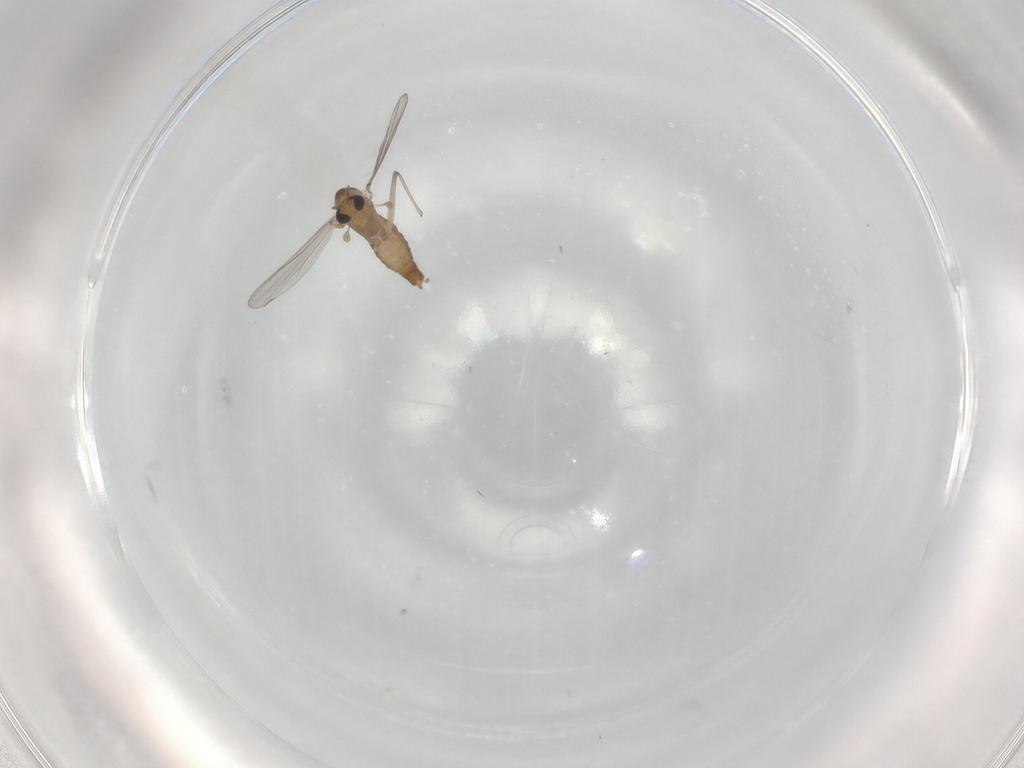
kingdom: Animalia
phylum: Arthropoda
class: Insecta
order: Diptera
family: Chironomidae
